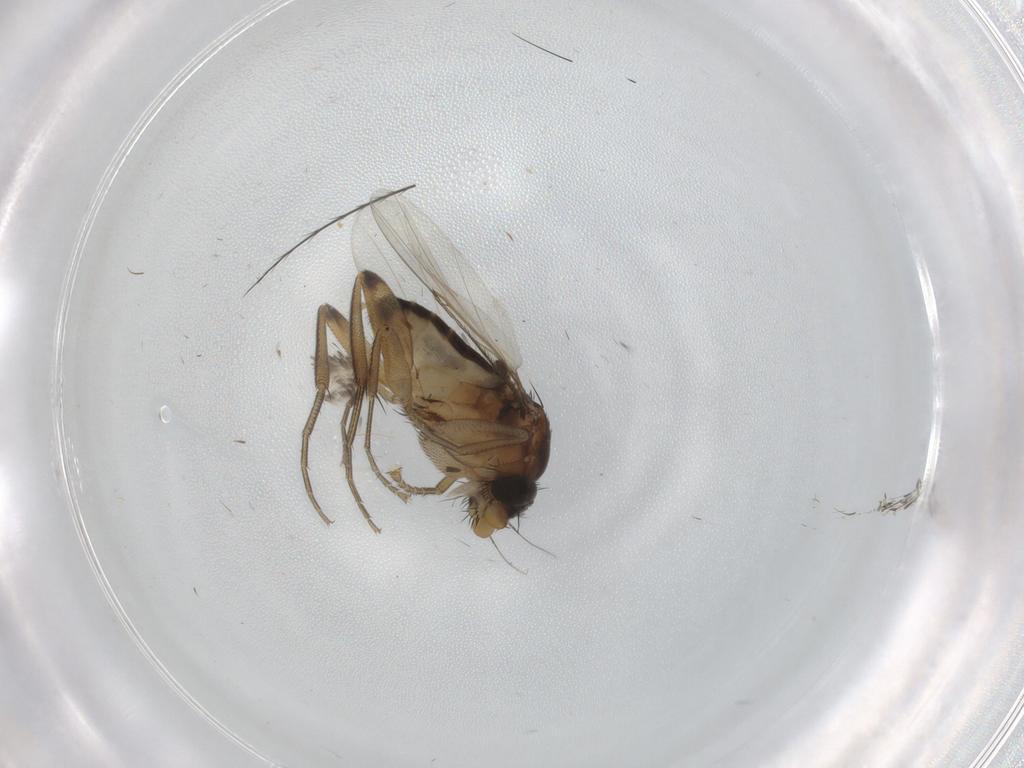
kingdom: Animalia
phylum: Arthropoda
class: Insecta
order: Diptera
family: Phoridae
